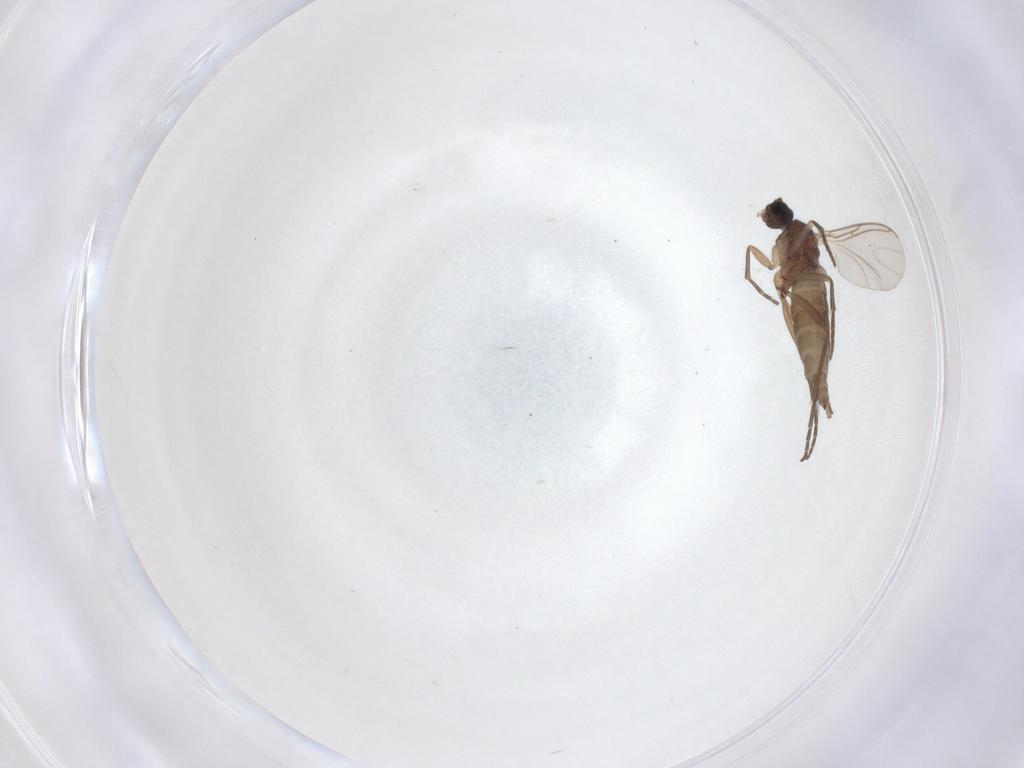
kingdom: Animalia
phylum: Arthropoda
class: Insecta
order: Diptera
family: Sciaridae
